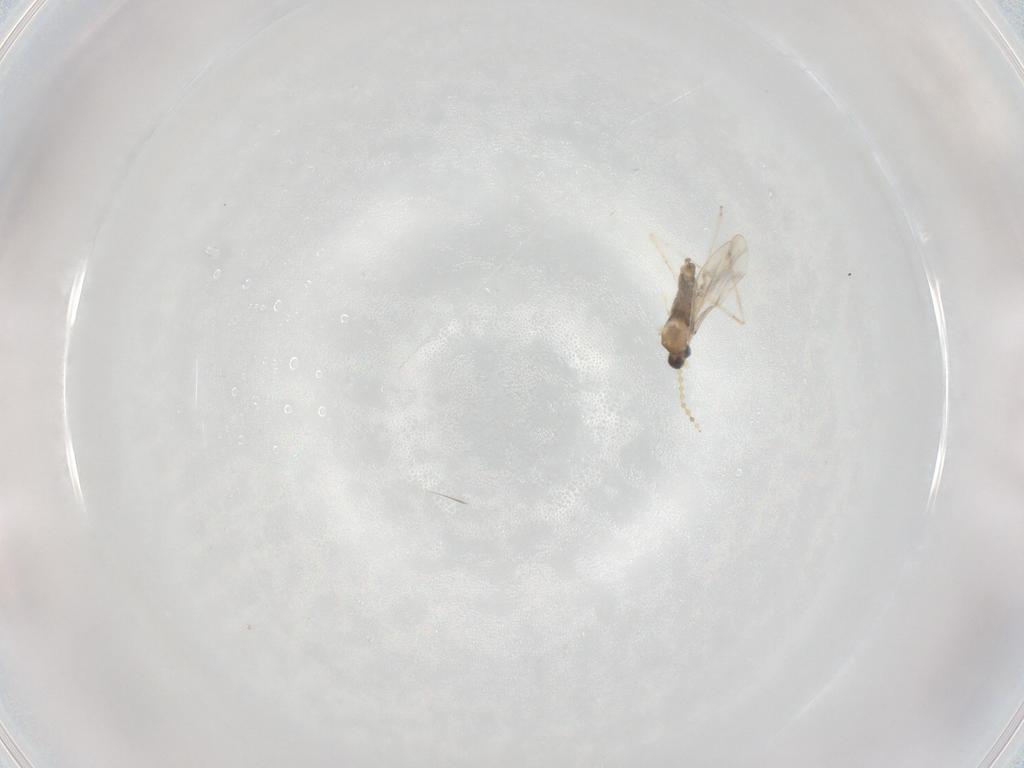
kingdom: Animalia
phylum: Arthropoda
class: Insecta
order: Diptera
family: Cecidomyiidae
